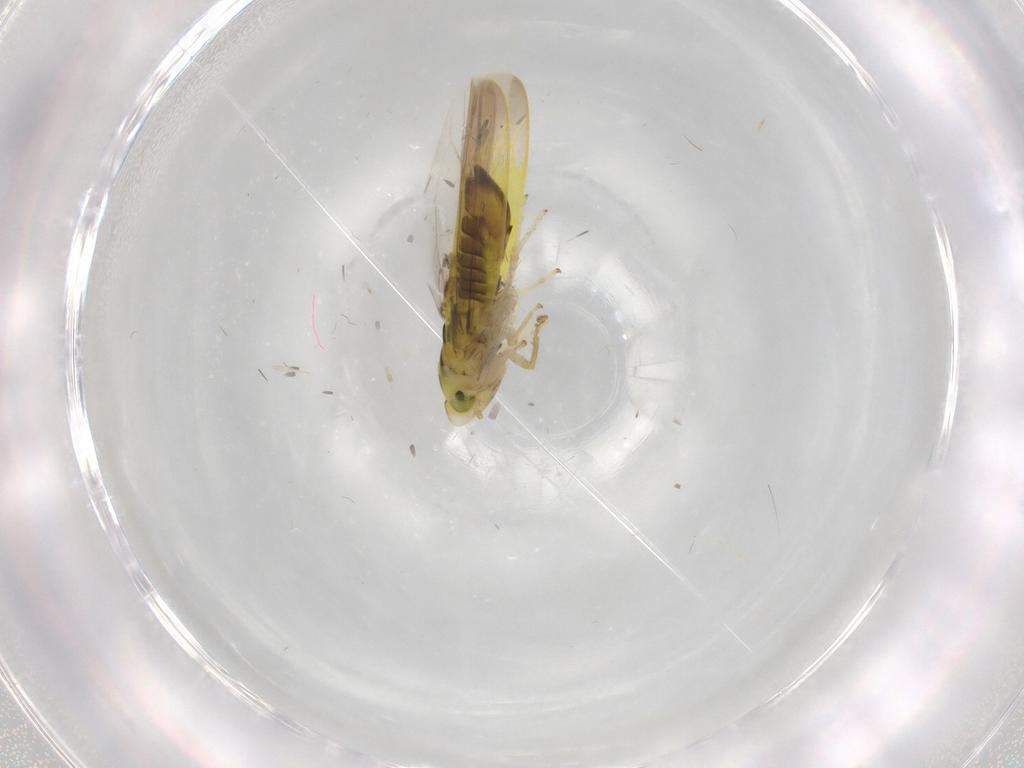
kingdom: Animalia
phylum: Arthropoda
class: Insecta
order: Hemiptera
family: Cicadellidae
